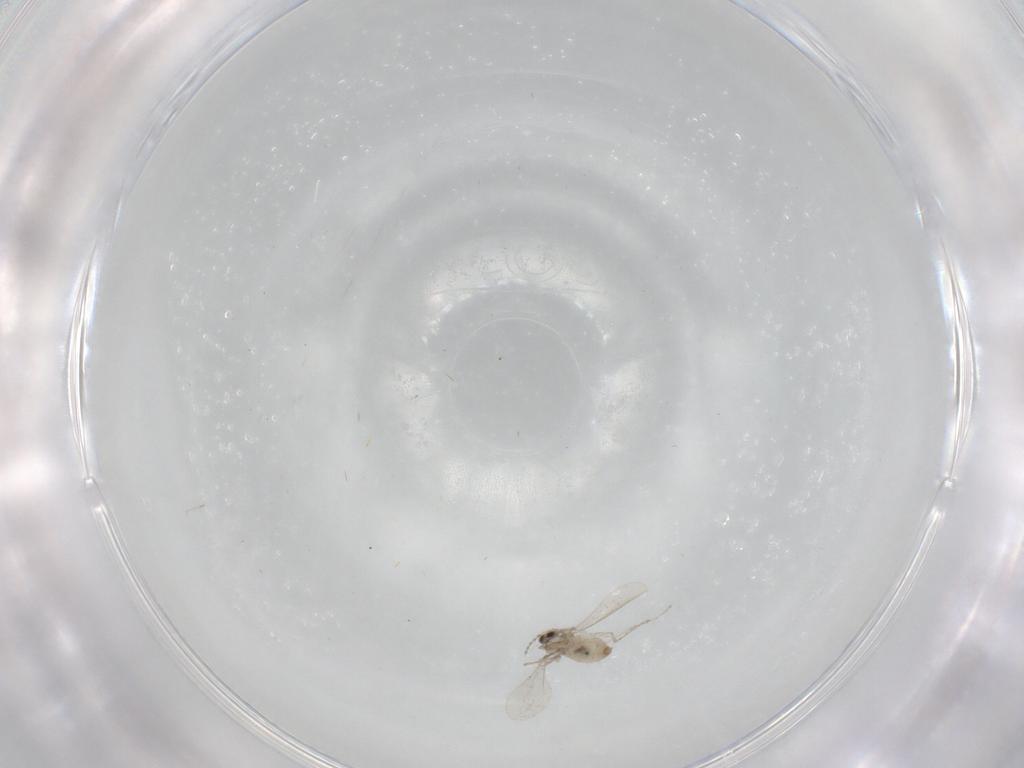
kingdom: Animalia
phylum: Arthropoda
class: Insecta
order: Diptera
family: Cecidomyiidae
